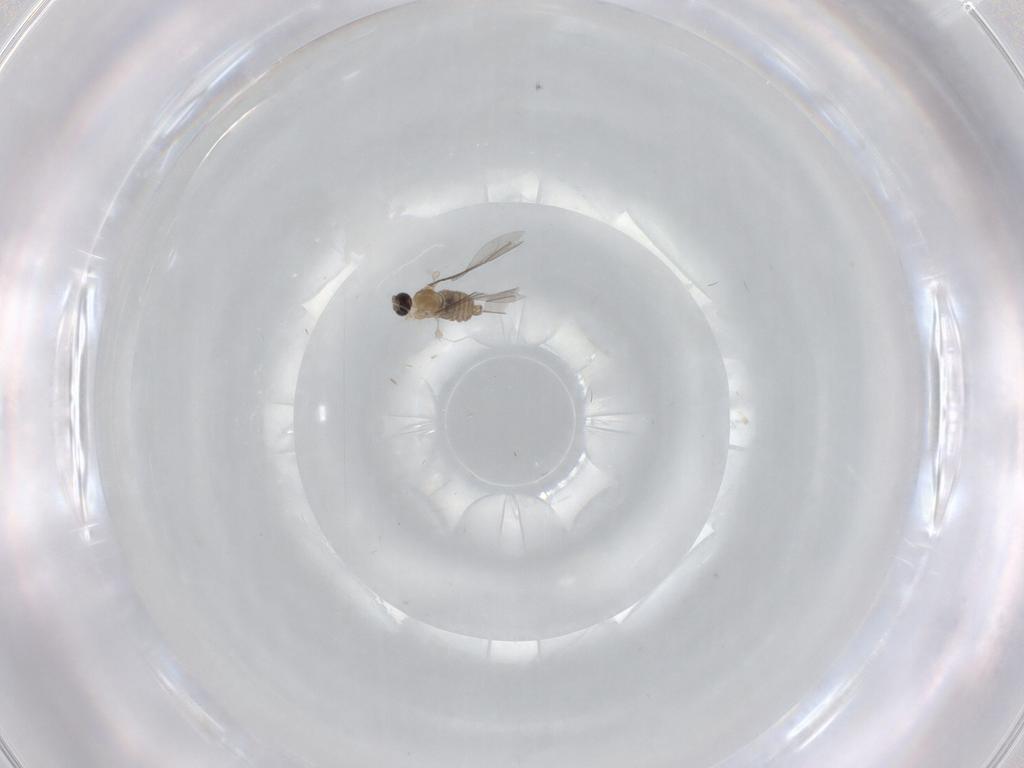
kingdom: Animalia
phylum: Arthropoda
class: Insecta
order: Diptera
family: Cecidomyiidae
